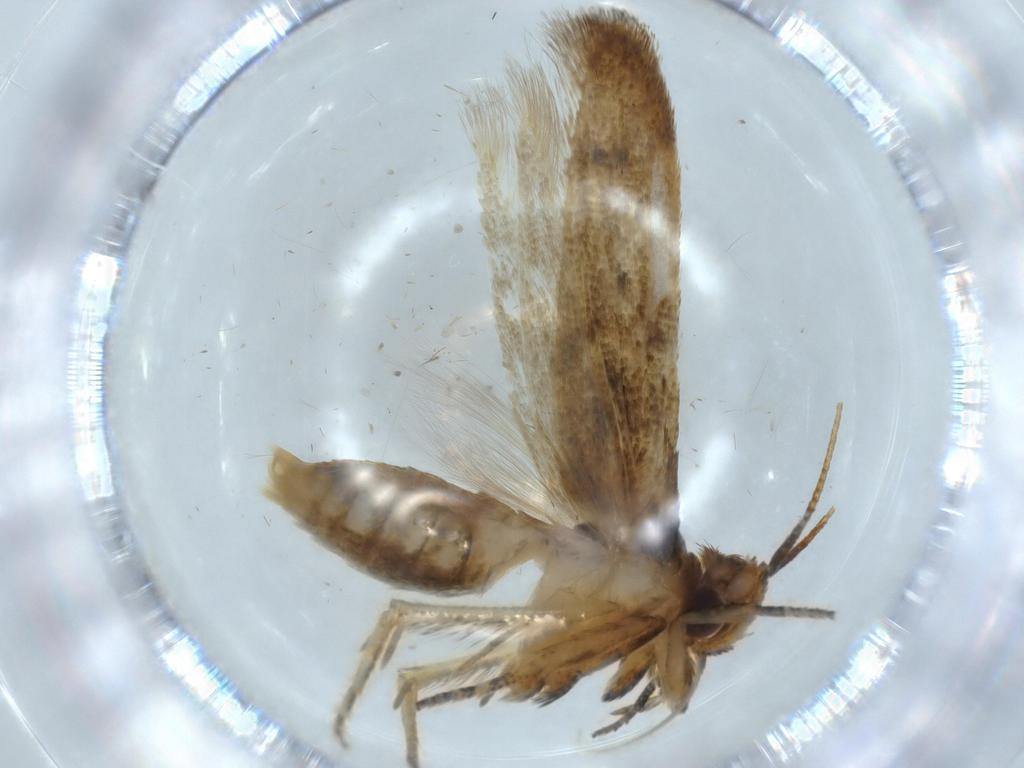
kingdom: Animalia
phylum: Arthropoda
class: Insecta
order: Lepidoptera
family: Coleophoridae
